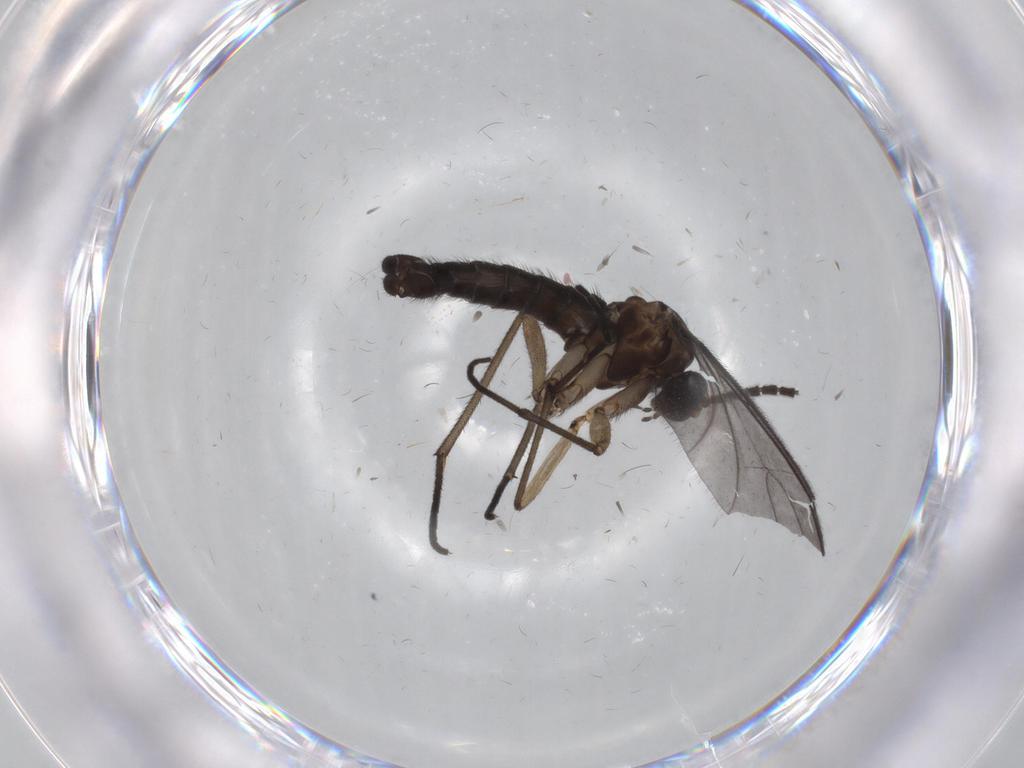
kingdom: Animalia
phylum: Arthropoda
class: Insecta
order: Diptera
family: Sciaridae
